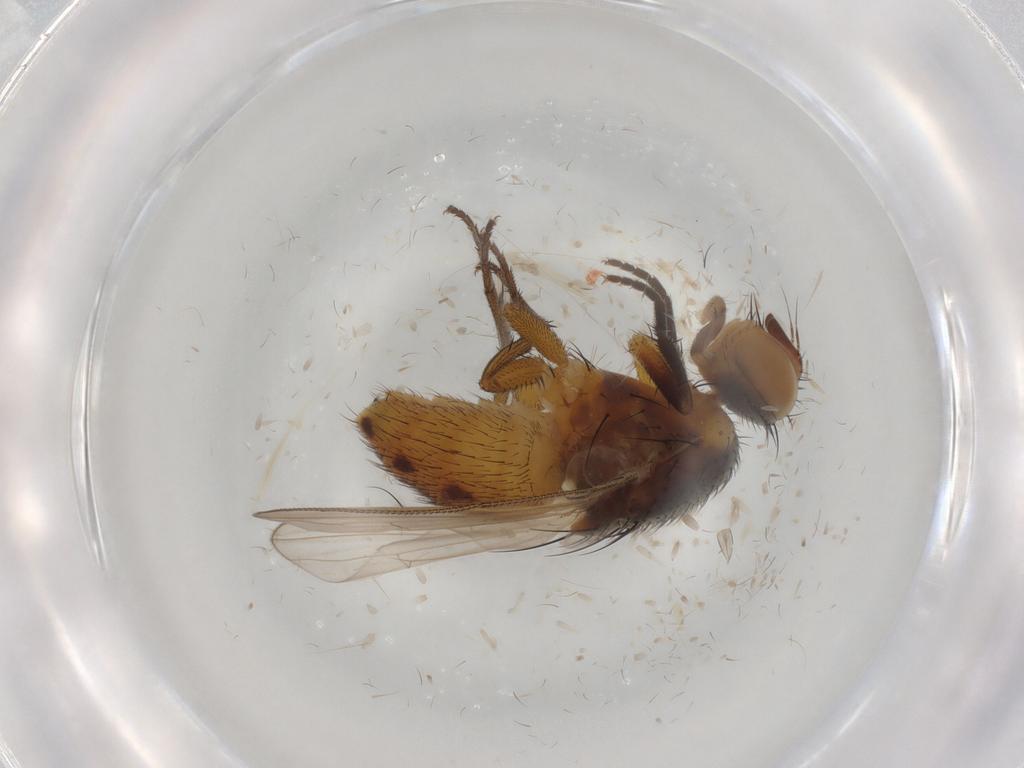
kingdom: Animalia
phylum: Arthropoda
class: Insecta
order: Diptera
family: Muscidae
